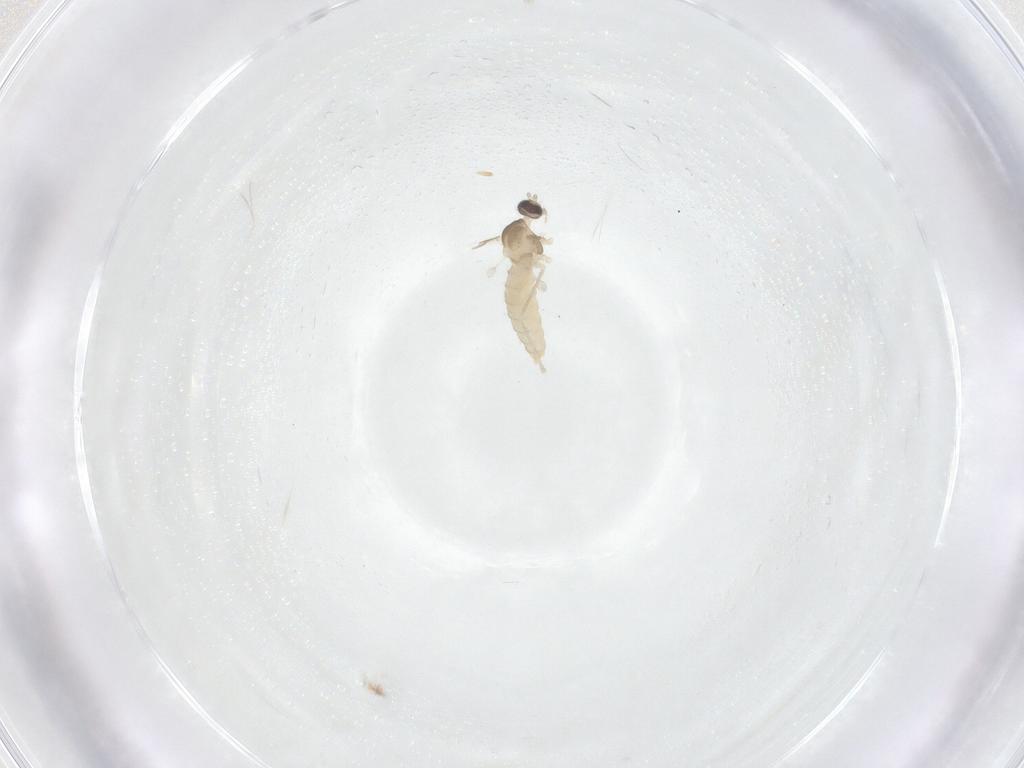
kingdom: Animalia
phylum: Arthropoda
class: Insecta
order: Diptera
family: Cecidomyiidae
